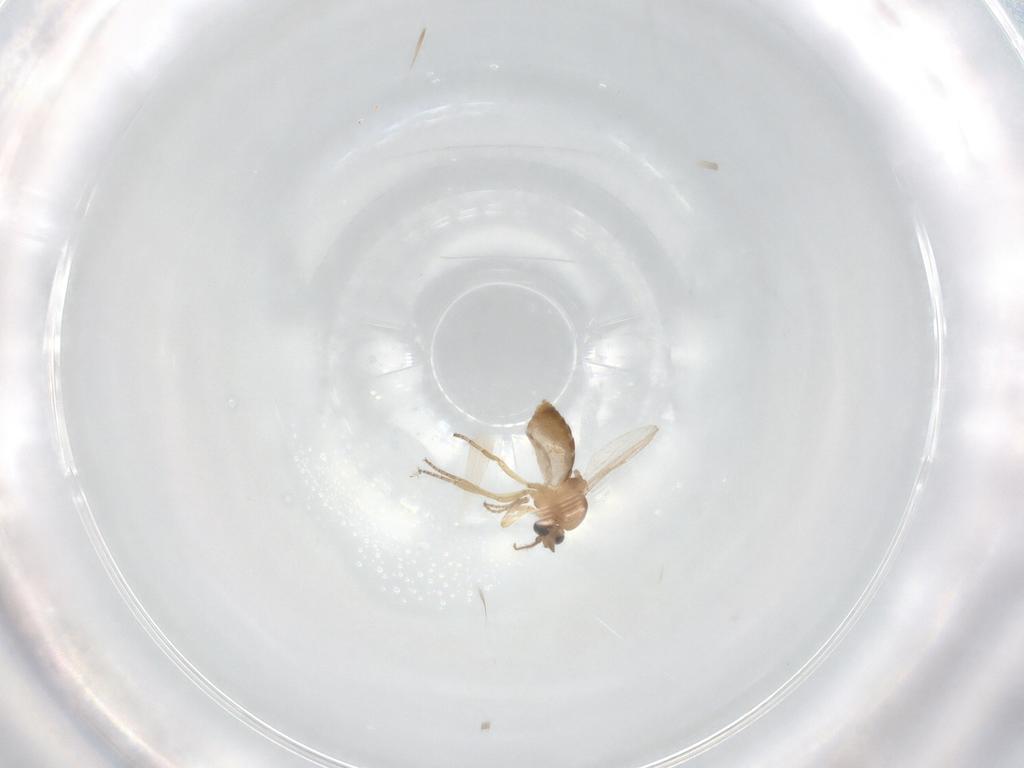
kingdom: Animalia
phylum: Arthropoda
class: Insecta
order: Diptera
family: Ceratopogonidae
